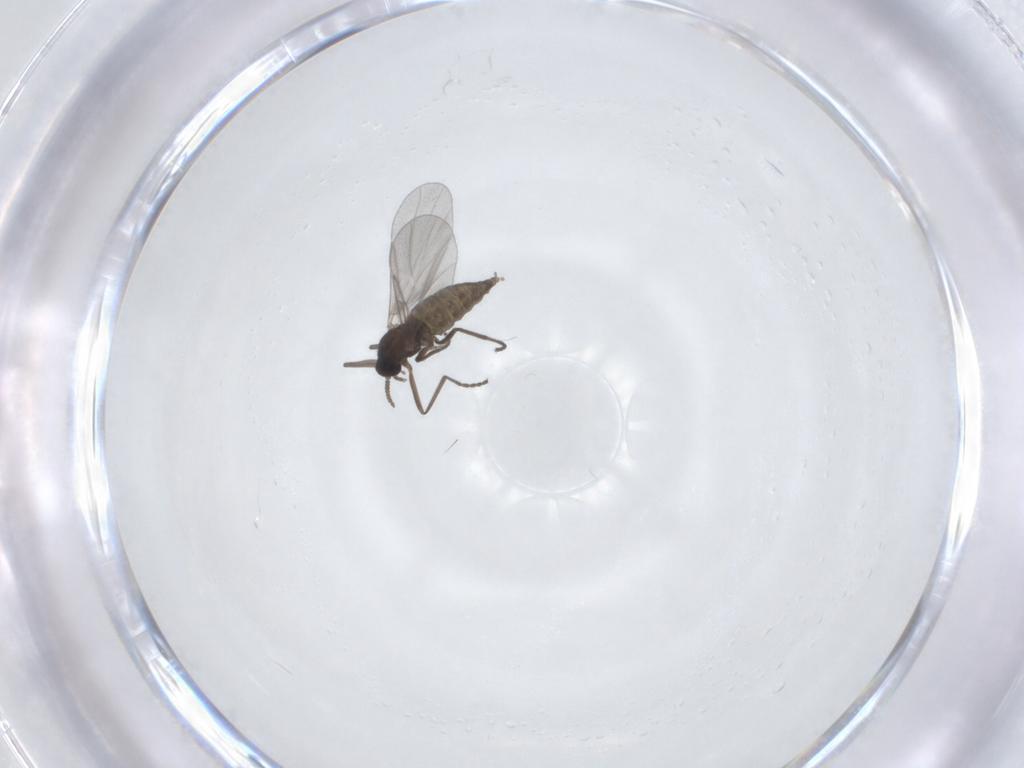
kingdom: Animalia
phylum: Arthropoda
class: Insecta
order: Diptera
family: Cecidomyiidae
